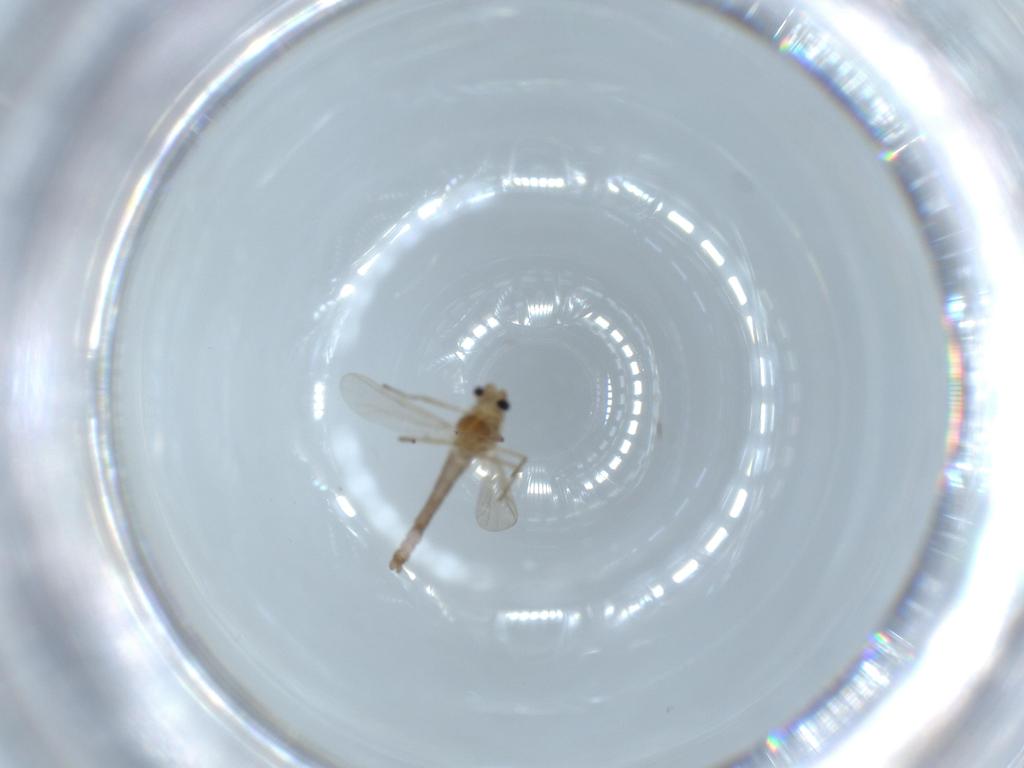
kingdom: Animalia
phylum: Arthropoda
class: Insecta
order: Diptera
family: Chironomidae
